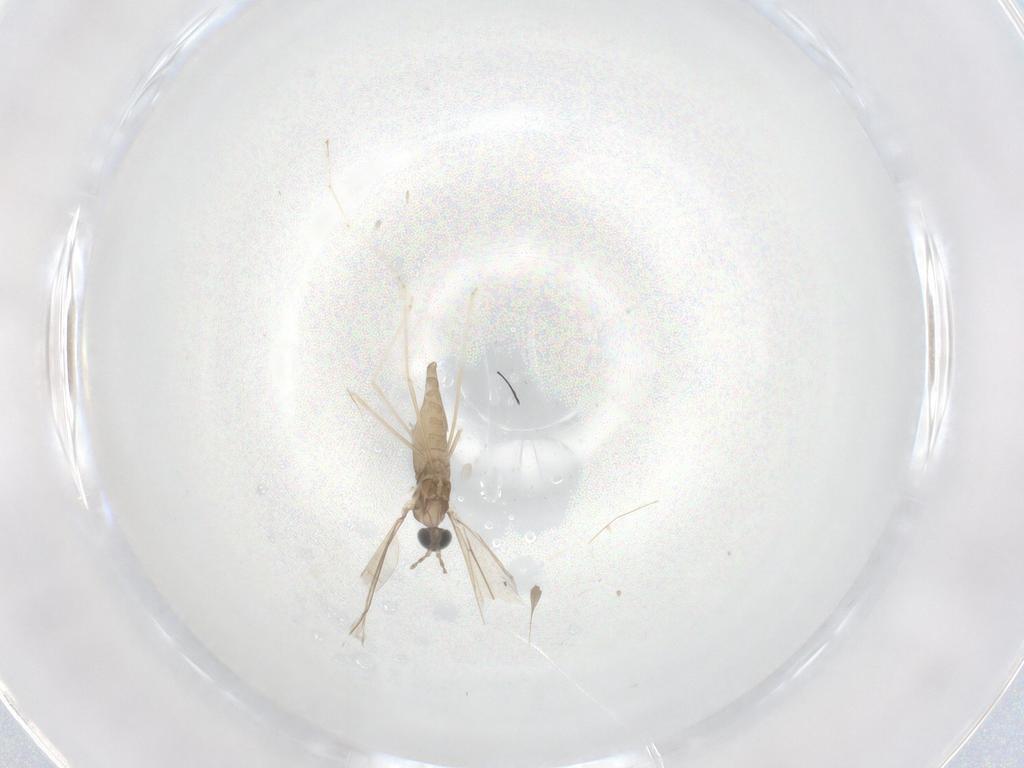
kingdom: Animalia
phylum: Arthropoda
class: Insecta
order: Diptera
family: Cecidomyiidae
